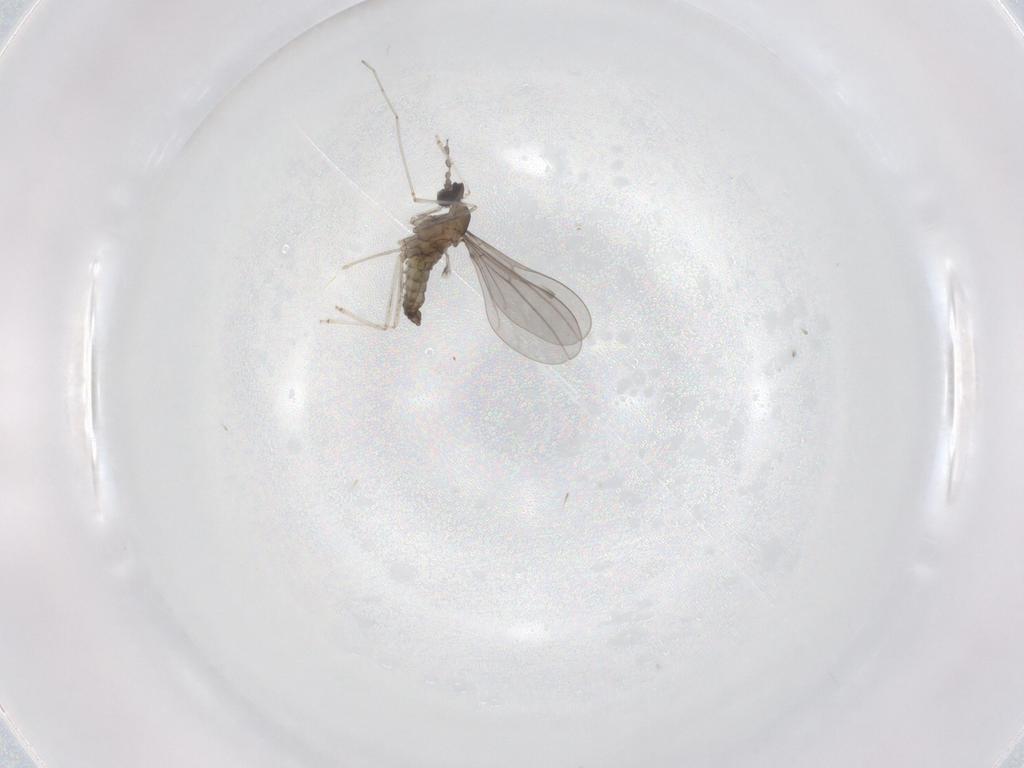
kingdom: Animalia
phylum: Arthropoda
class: Insecta
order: Diptera
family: Cecidomyiidae
